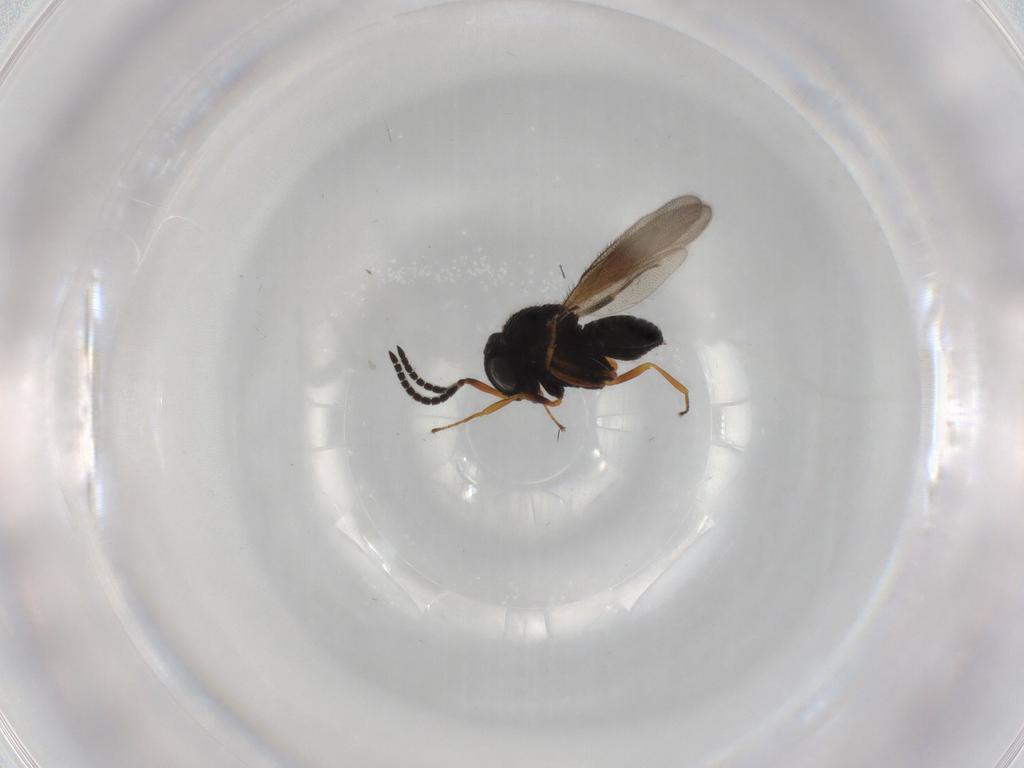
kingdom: Animalia
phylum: Arthropoda
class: Insecta
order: Hymenoptera
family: Scelionidae
